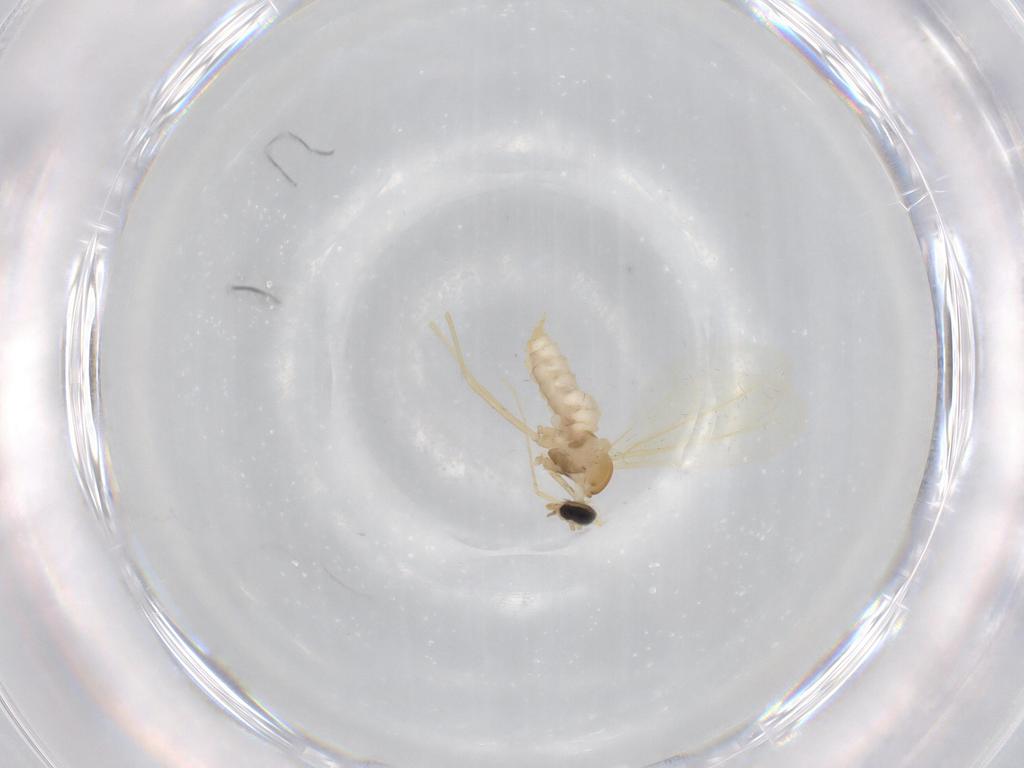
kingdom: Animalia
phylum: Arthropoda
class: Insecta
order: Diptera
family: Cecidomyiidae
